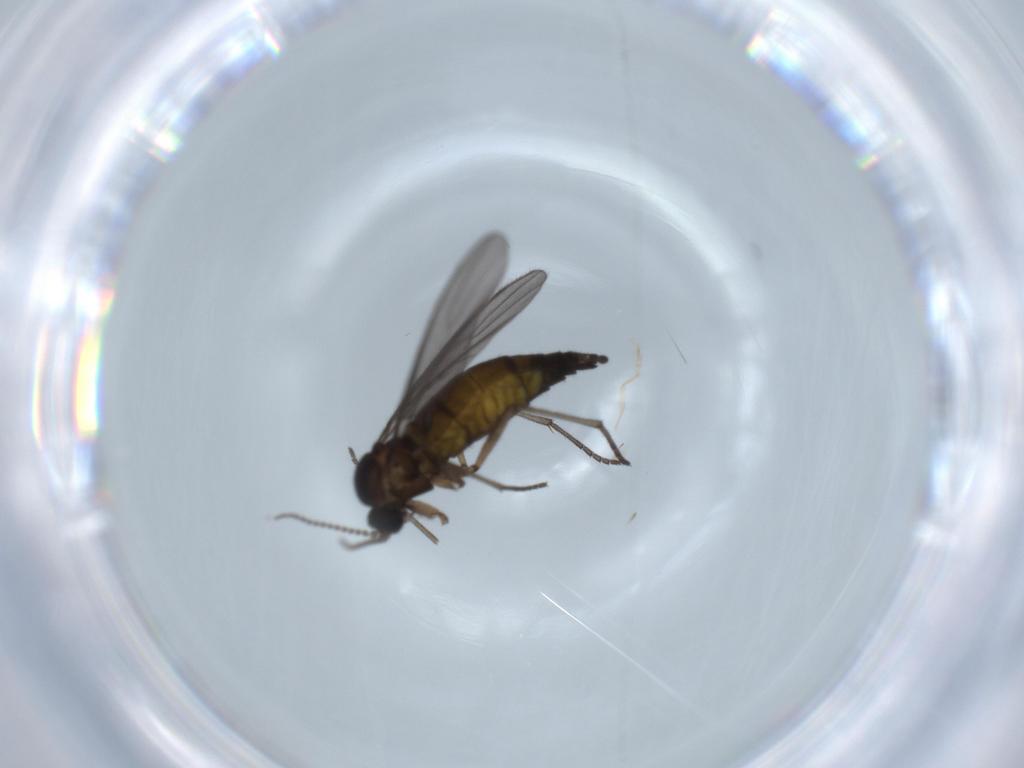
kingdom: Animalia
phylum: Arthropoda
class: Insecta
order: Diptera
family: Sciaridae
